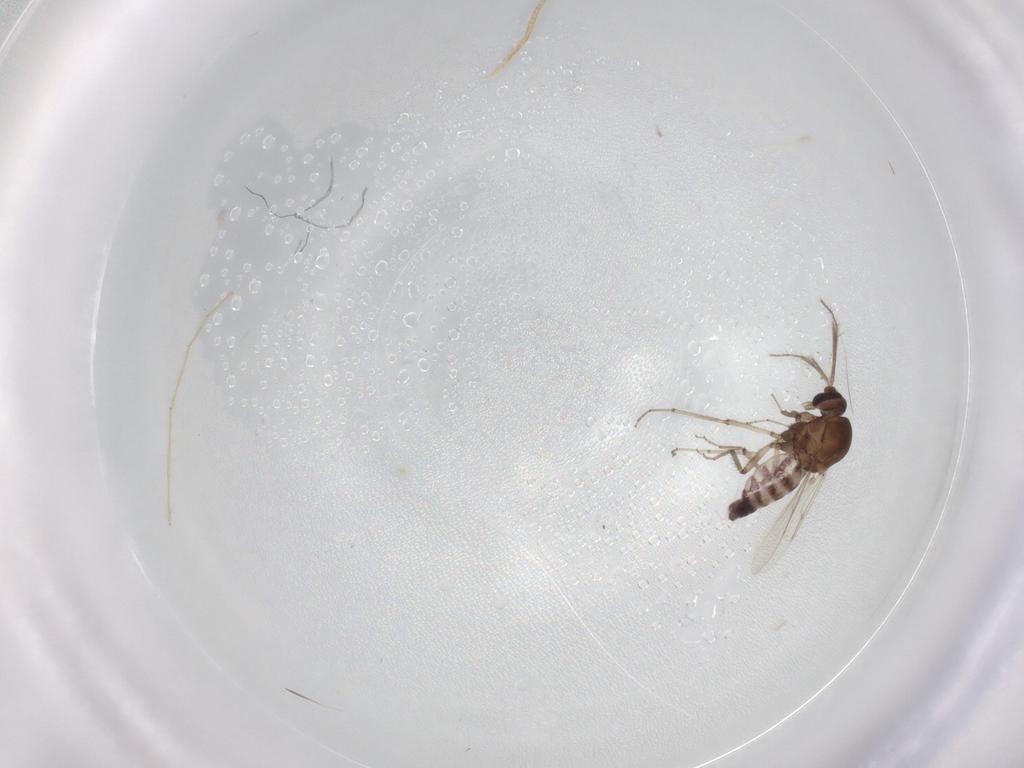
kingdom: Animalia
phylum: Arthropoda
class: Insecta
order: Diptera
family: Ceratopogonidae
